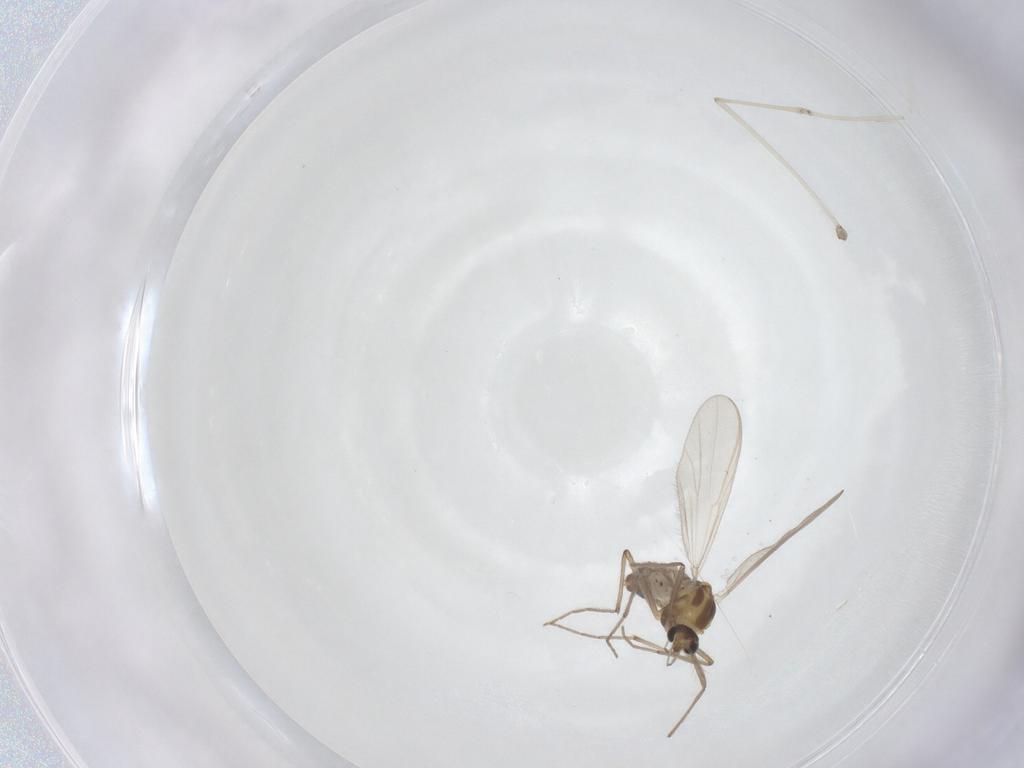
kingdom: Animalia
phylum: Arthropoda
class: Insecta
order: Diptera
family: Chironomidae
